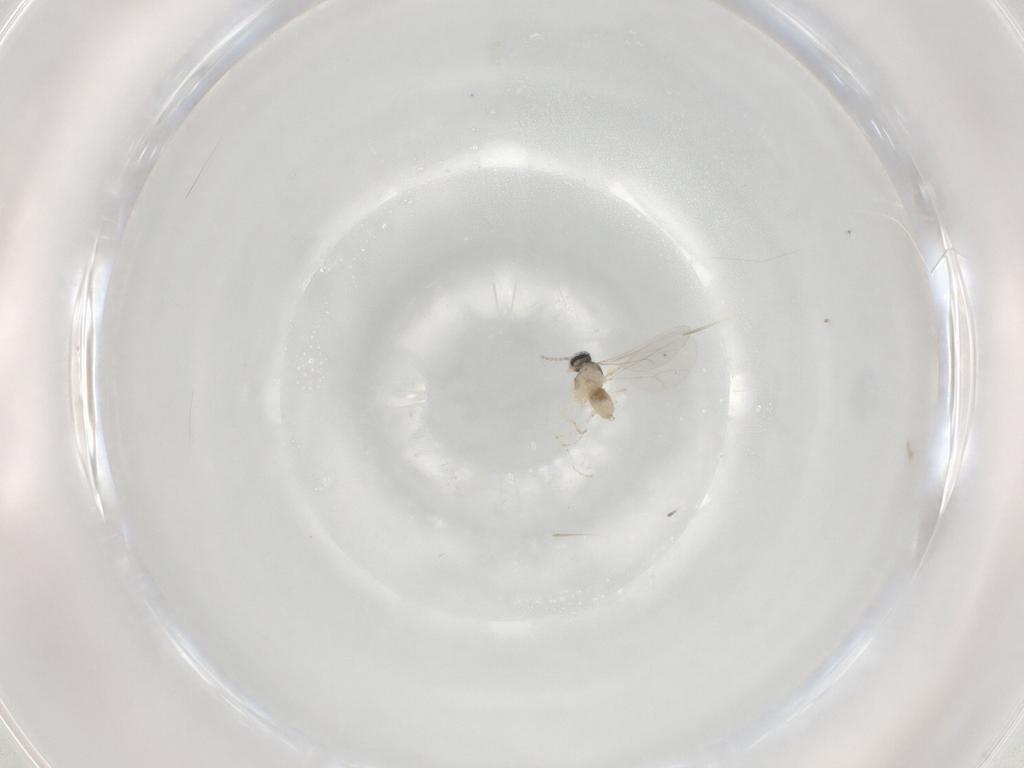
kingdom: Animalia
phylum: Arthropoda
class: Insecta
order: Diptera
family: Cecidomyiidae
